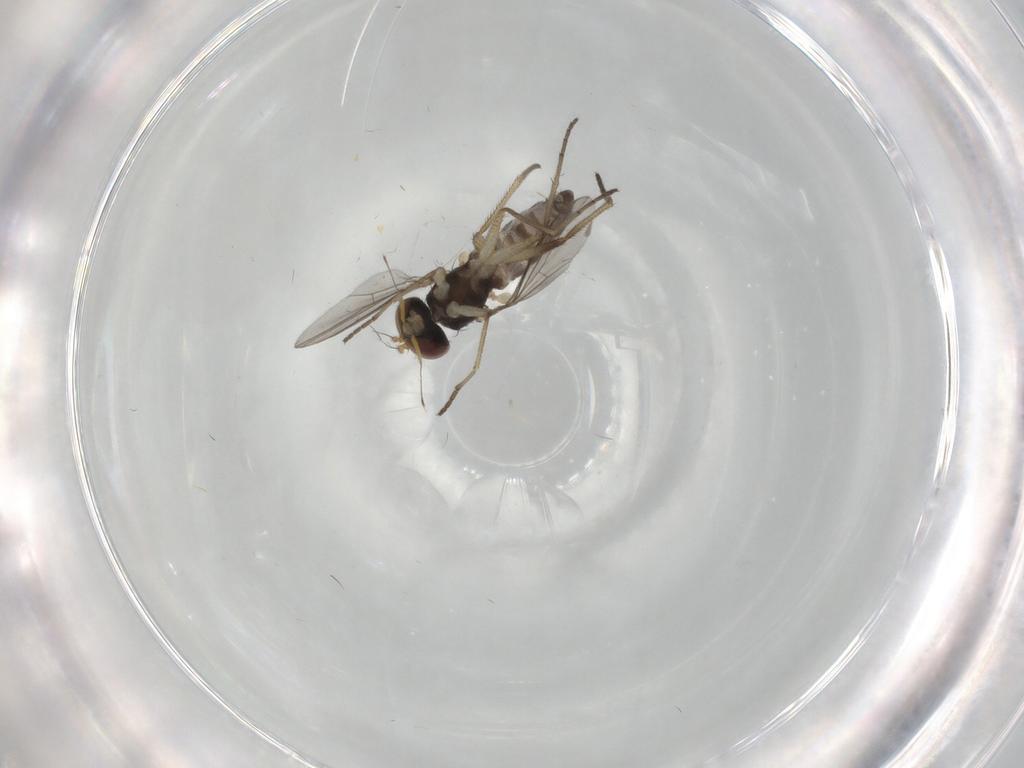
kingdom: Animalia
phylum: Arthropoda
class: Insecta
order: Diptera
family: Dolichopodidae
